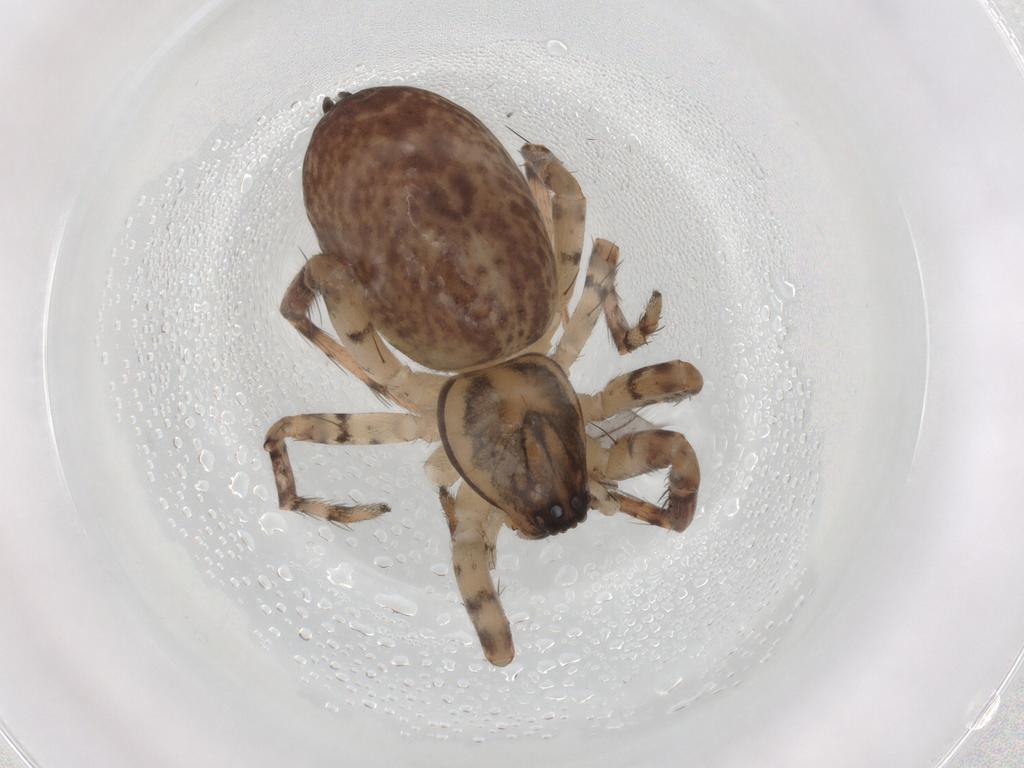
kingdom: Animalia
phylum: Arthropoda
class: Arachnida
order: Araneae
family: Anyphaenidae
